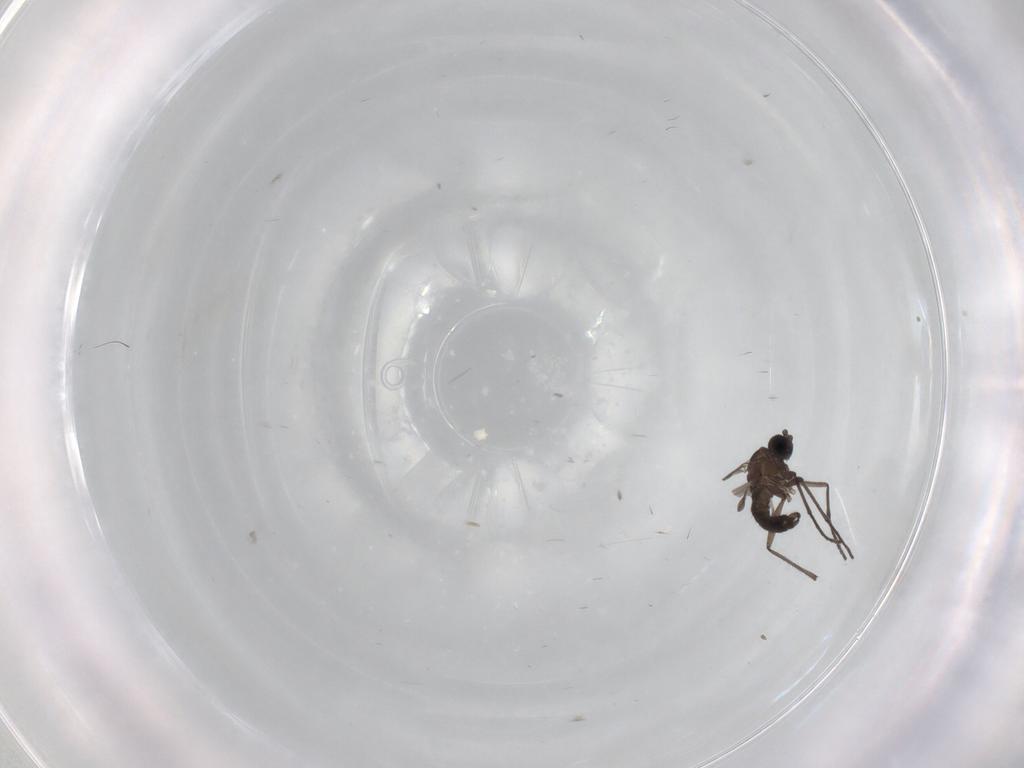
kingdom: Animalia
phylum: Arthropoda
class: Insecta
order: Diptera
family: Sciaridae
